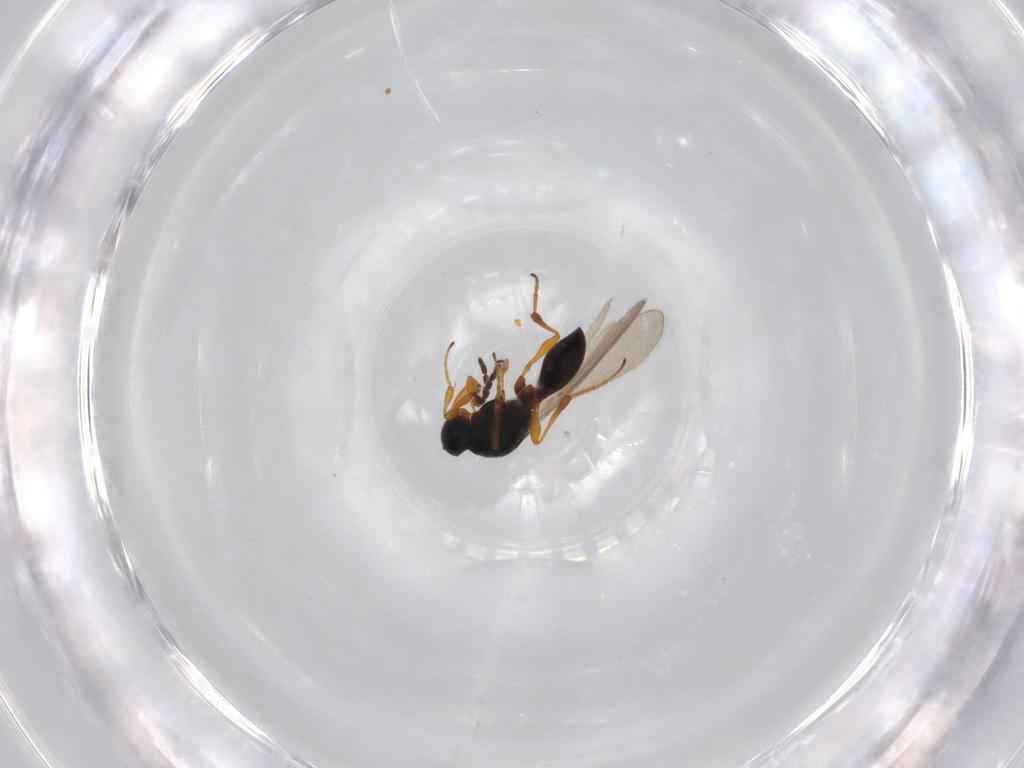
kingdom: Animalia
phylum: Arthropoda
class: Insecta
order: Hymenoptera
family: Platygastridae
